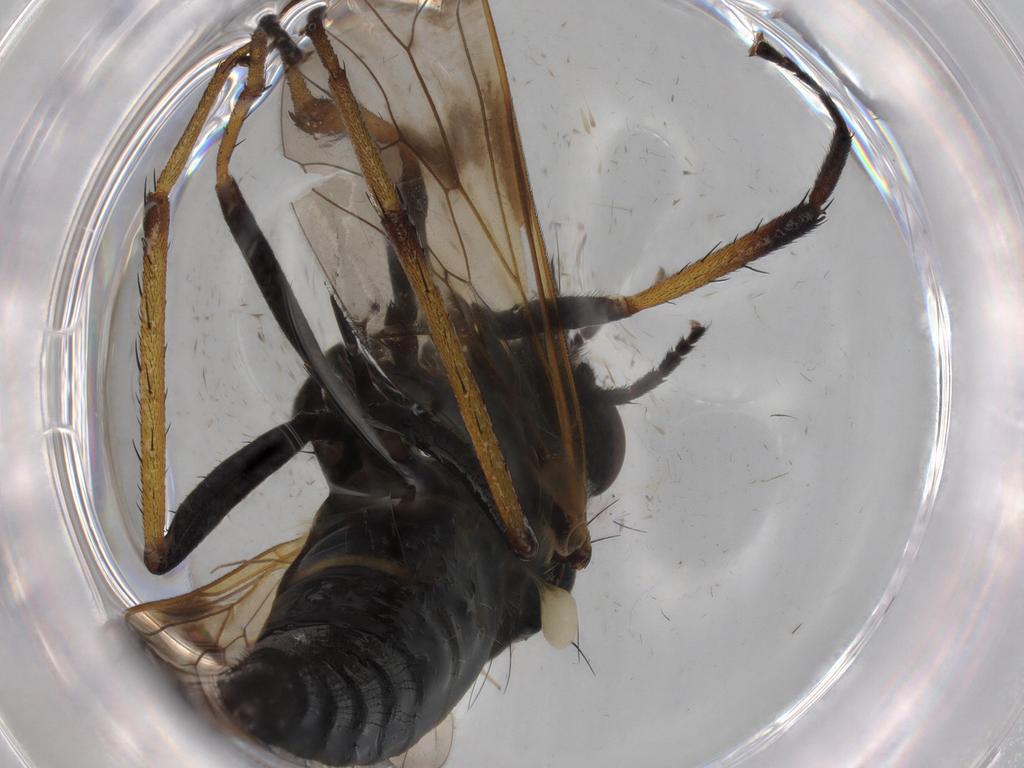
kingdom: Animalia
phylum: Arthropoda
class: Insecta
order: Diptera
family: Cecidomyiidae
